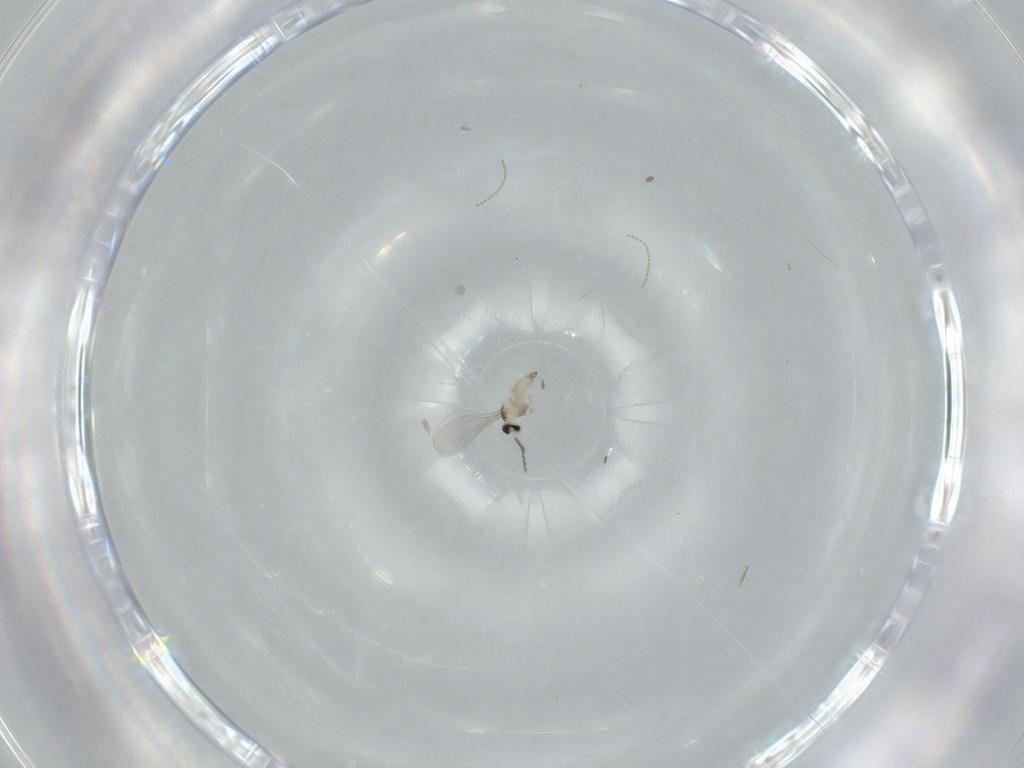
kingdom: Animalia
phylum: Arthropoda
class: Insecta
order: Diptera
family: Cecidomyiidae
